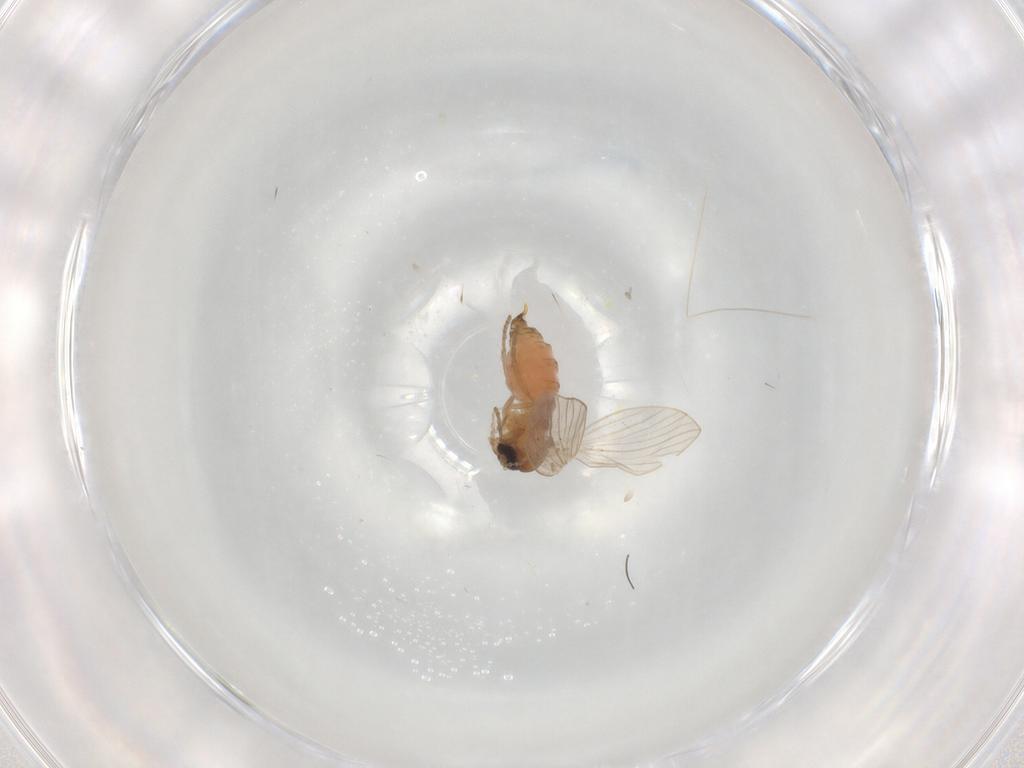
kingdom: Animalia
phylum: Arthropoda
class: Insecta
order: Diptera
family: Psychodidae
